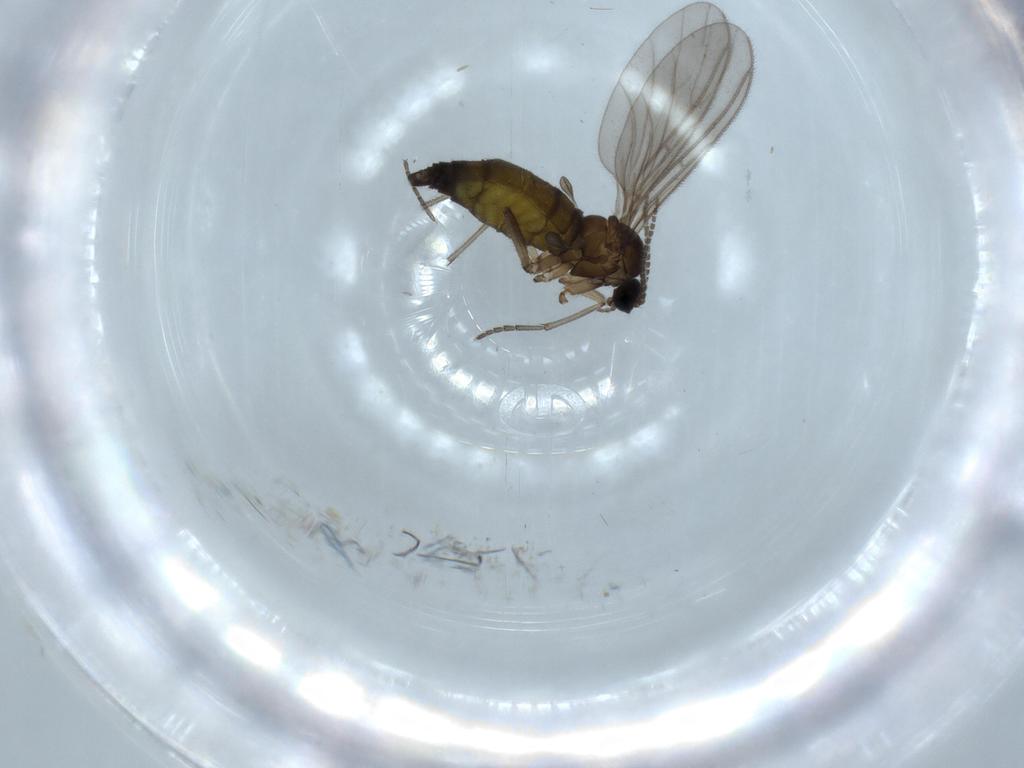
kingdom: Animalia
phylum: Arthropoda
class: Insecta
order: Diptera
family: Sciaridae
